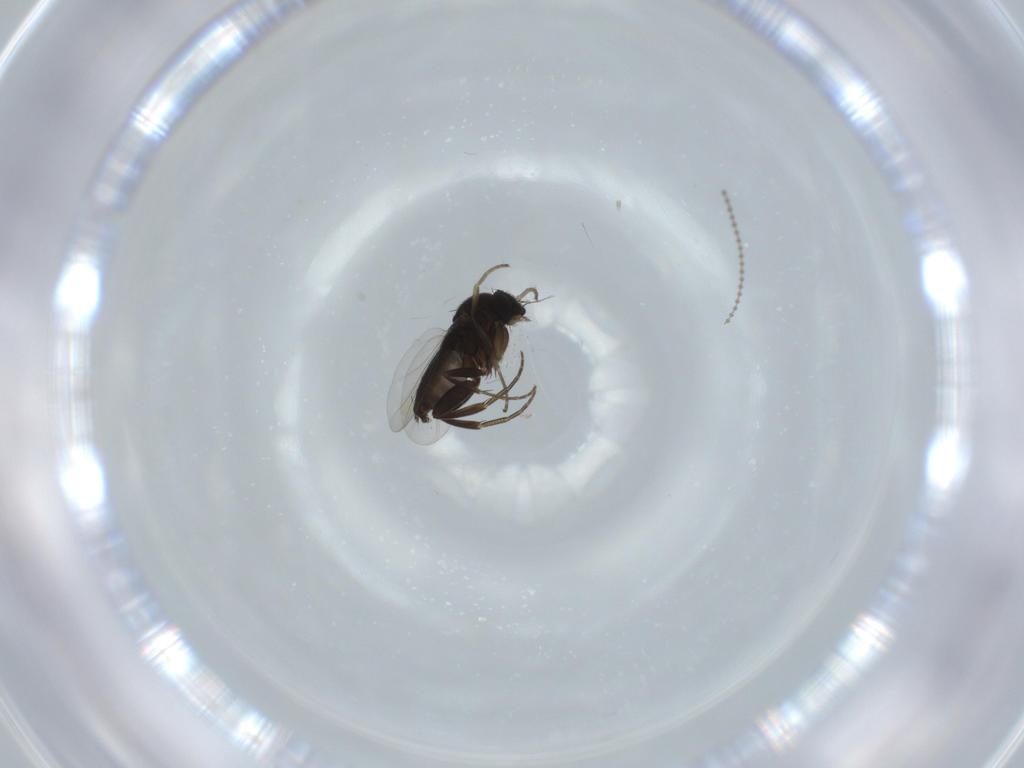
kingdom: Animalia
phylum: Arthropoda
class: Insecta
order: Diptera
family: Phoridae
